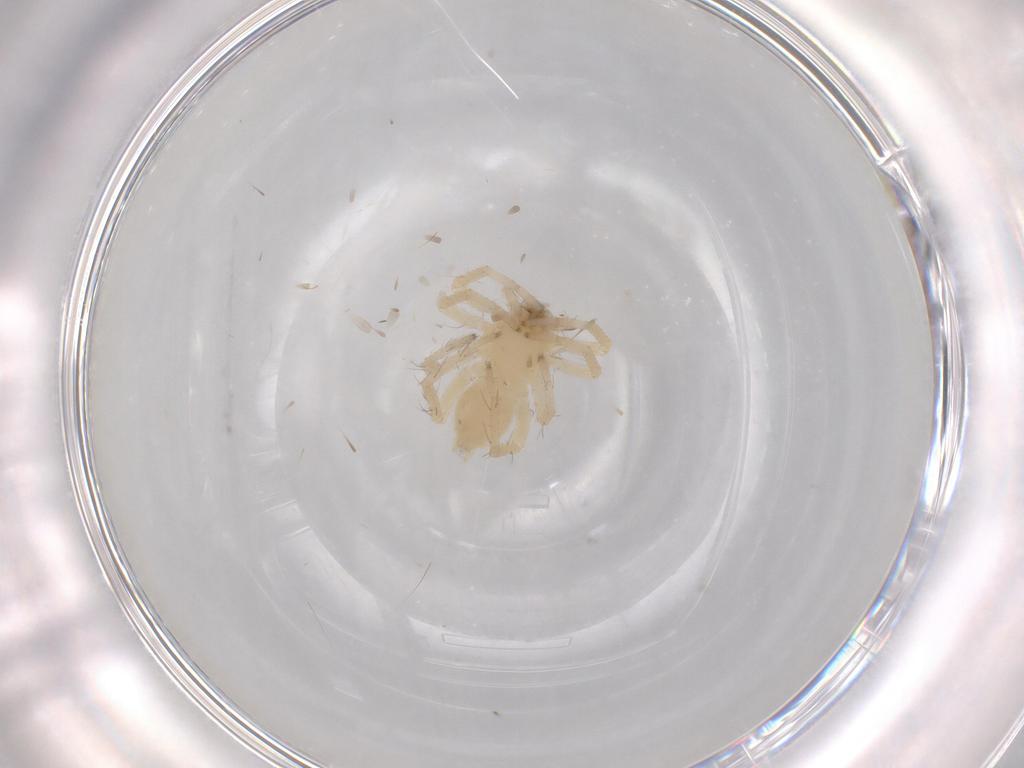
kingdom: Animalia
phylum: Arthropoda
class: Arachnida
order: Araneae
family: Anyphaenidae
